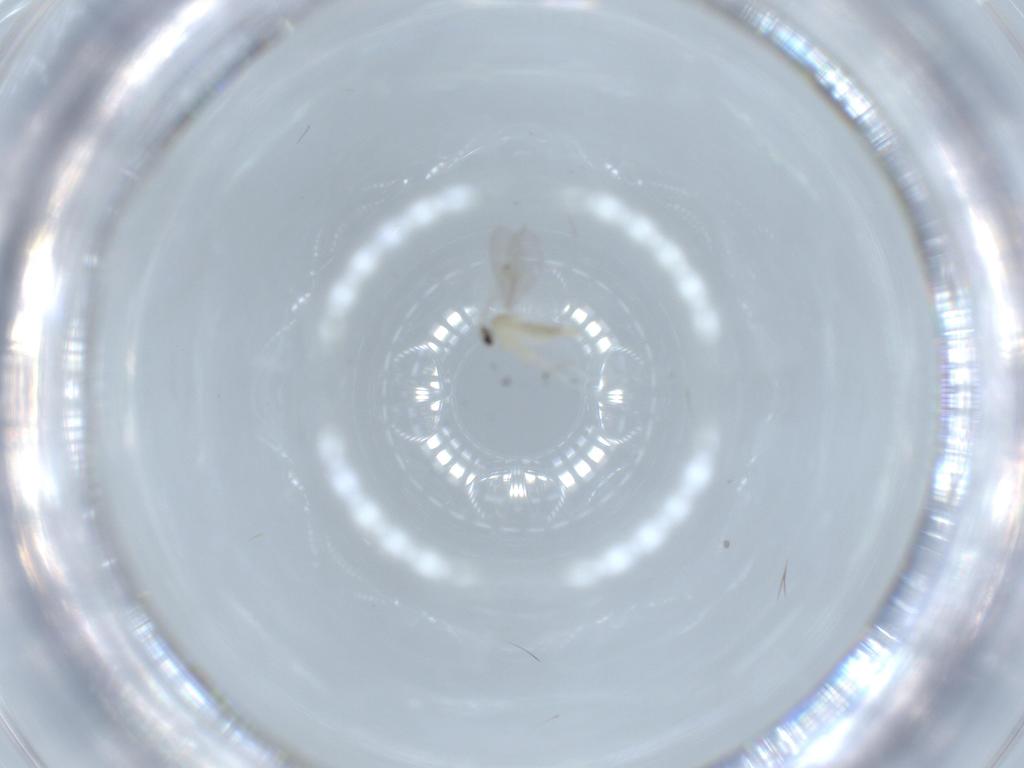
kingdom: Animalia
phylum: Arthropoda
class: Insecta
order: Diptera
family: Cecidomyiidae
